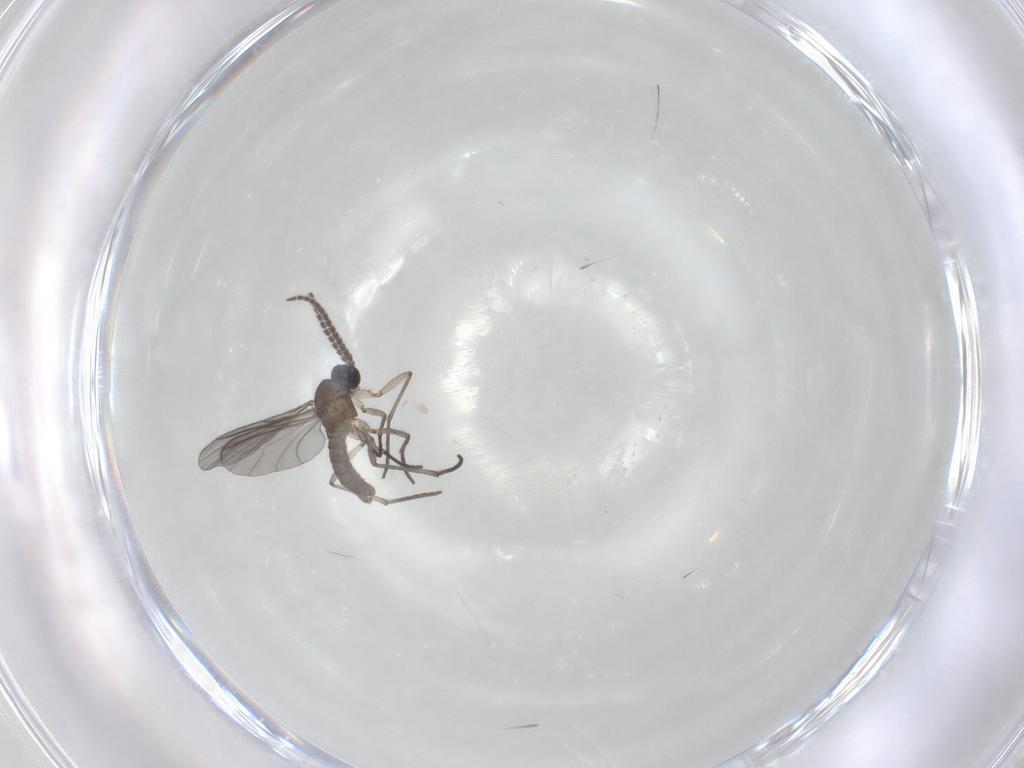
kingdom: Animalia
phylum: Arthropoda
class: Insecta
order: Diptera
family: Sciaridae
